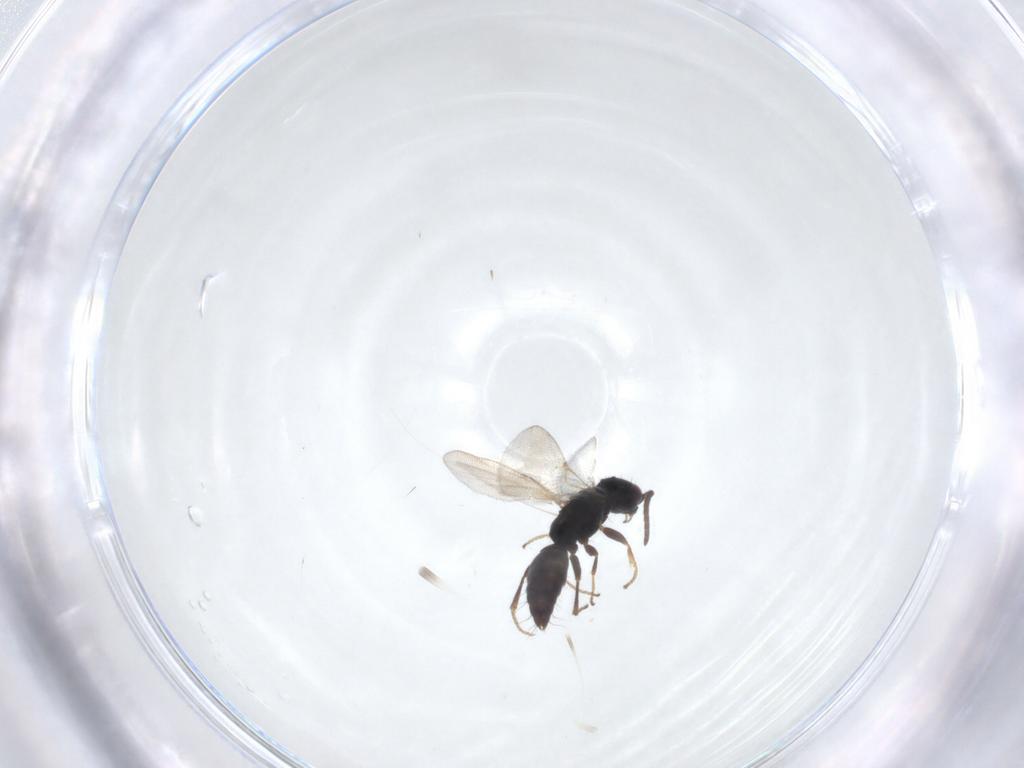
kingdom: Animalia
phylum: Arthropoda
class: Insecta
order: Hymenoptera
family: Bethylidae
